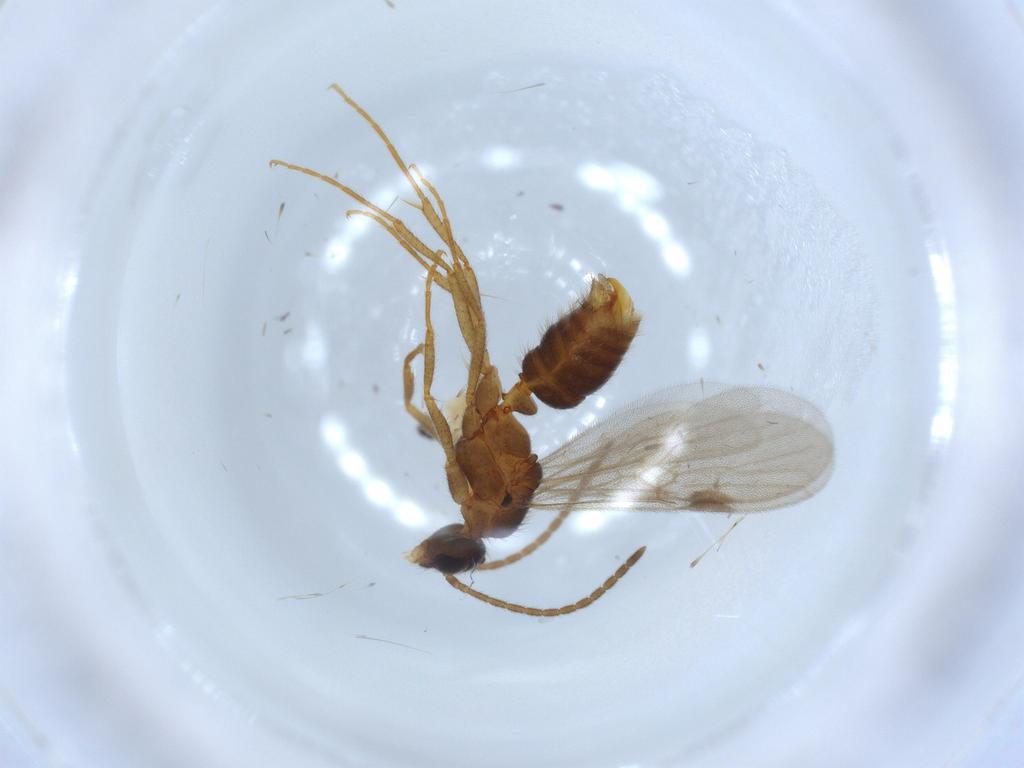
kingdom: Animalia
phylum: Arthropoda
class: Insecta
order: Hymenoptera
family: Formicidae
